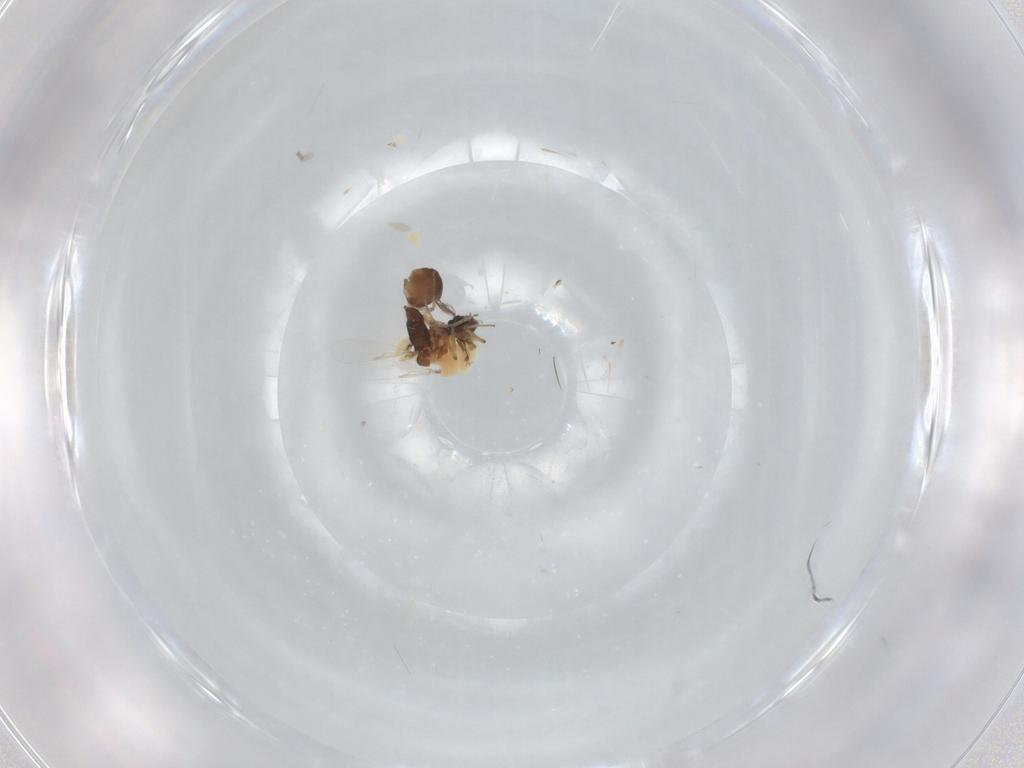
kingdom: Animalia
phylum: Arthropoda
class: Insecta
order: Diptera
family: Ceratopogonidae
